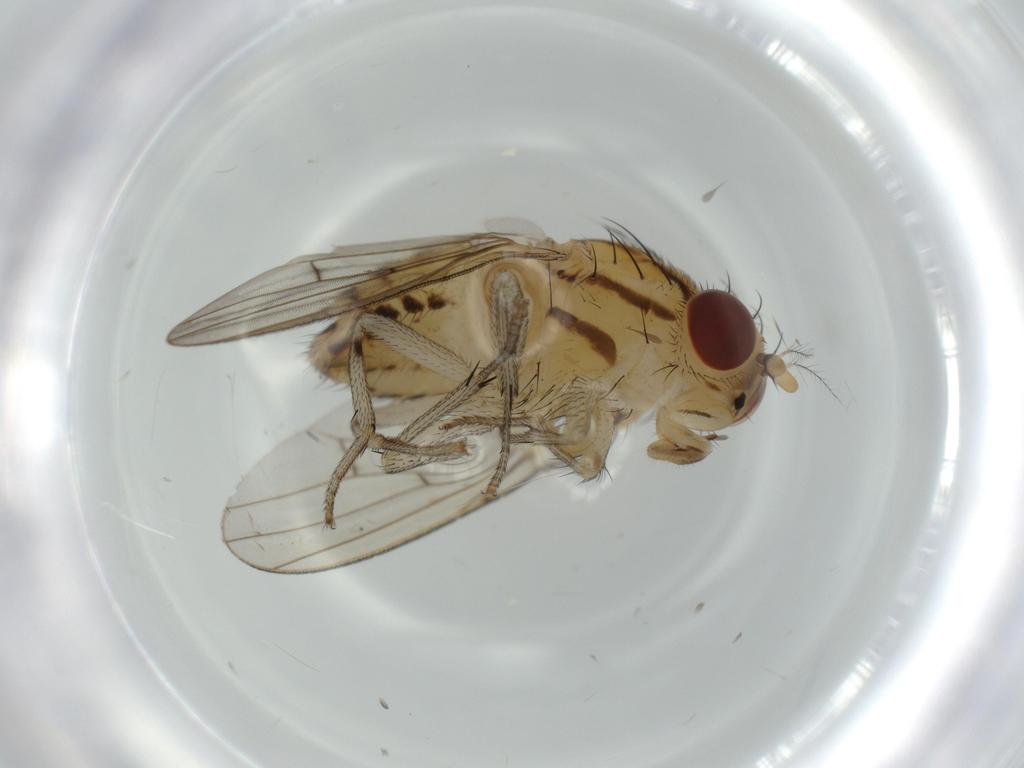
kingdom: Animalia
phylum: Arthropoda
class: Insecta
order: Diptera
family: Lauxaniidae
